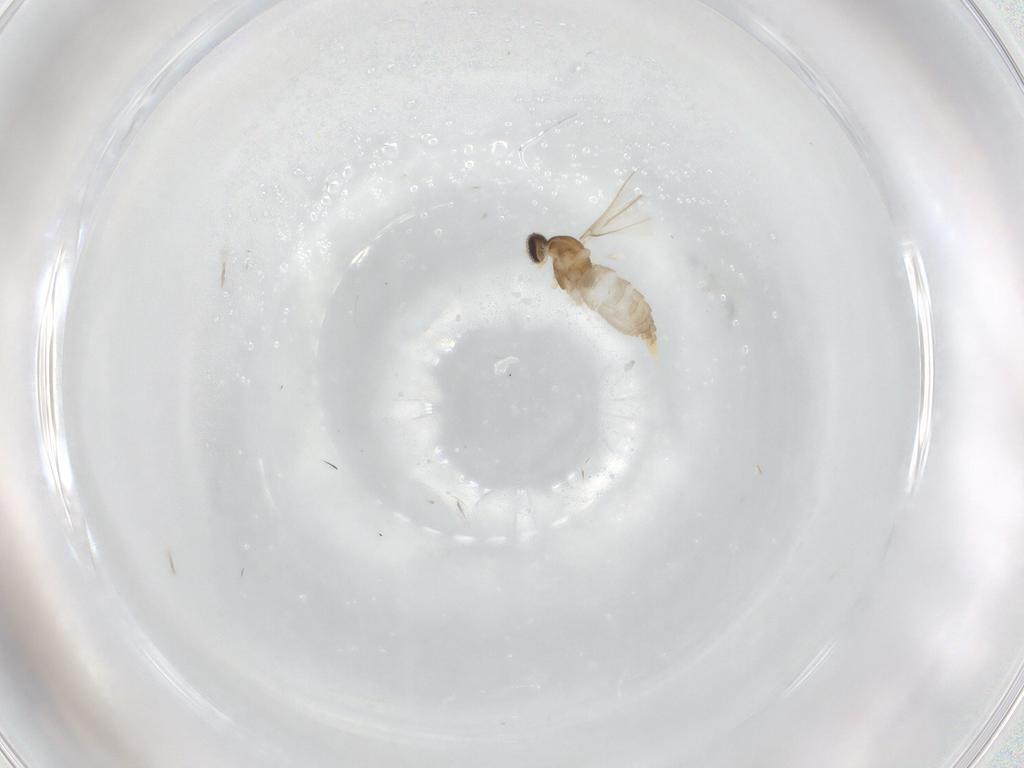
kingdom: Animalia
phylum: Arthropoda
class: Insecta
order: Diptera
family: Cecidomyiidae
